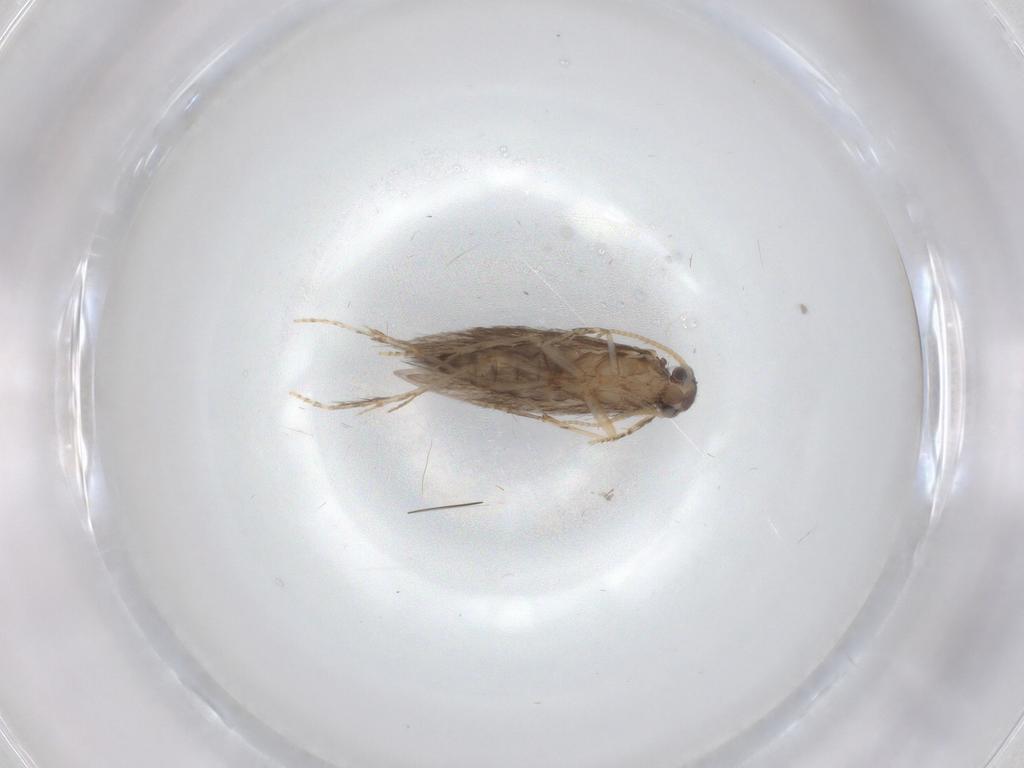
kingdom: Animalia
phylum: Arthropoda
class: Insecta
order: Trichoptera
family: Hydroptilidae
